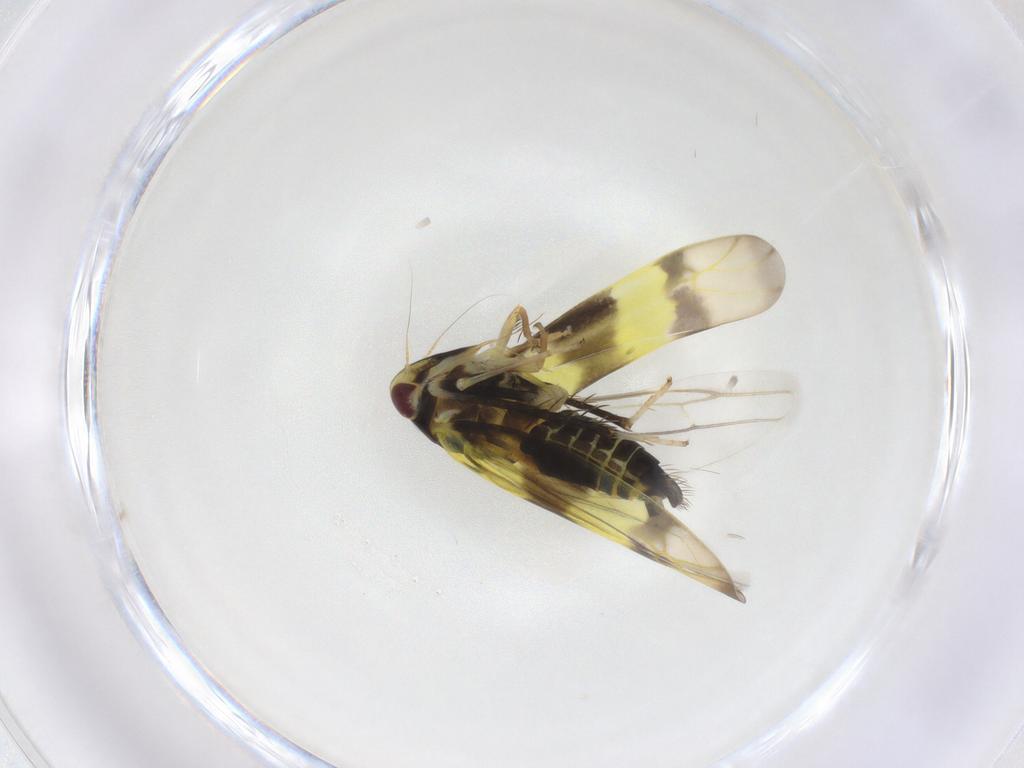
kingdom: Animalia
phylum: Arthropoda
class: Insecta
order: Hemiptera
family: Cicadellidae
